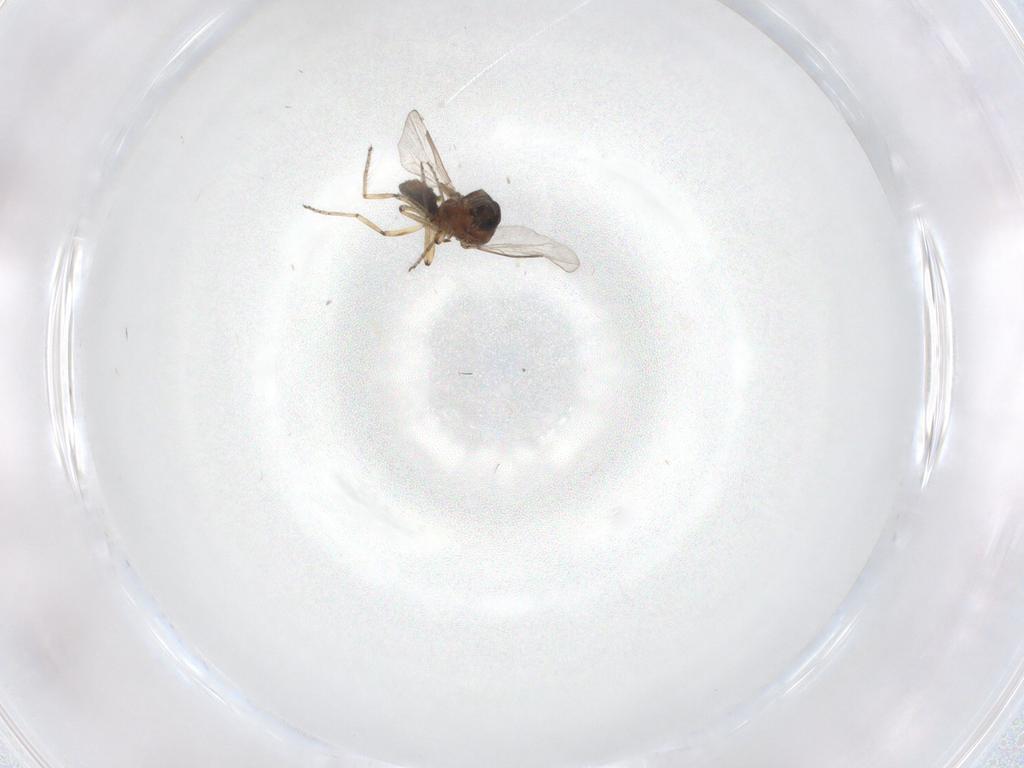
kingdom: Animalia
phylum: Arthropoda
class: Insecta
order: Diptera
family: Ceratopogonidae
